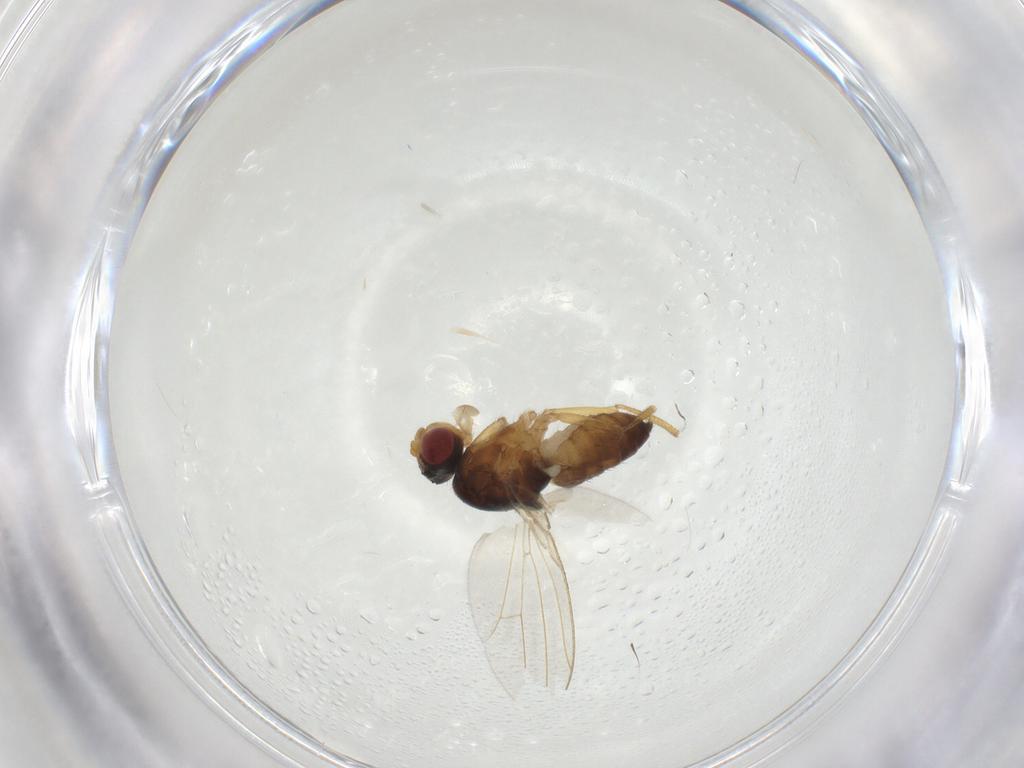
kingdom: Animalia
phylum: Arthropoda
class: Insecta
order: Diptera
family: Drosophilidae
